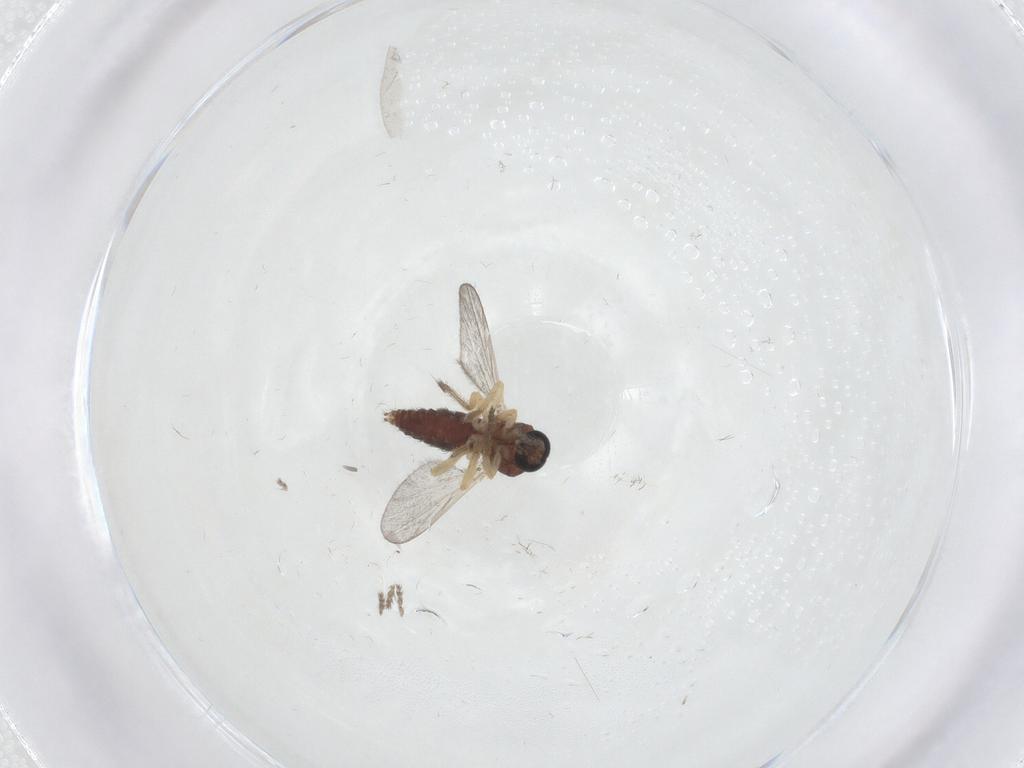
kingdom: Animalia
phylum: Arthropoda
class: Insecta
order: Diptera
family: Ceratopogonidae
